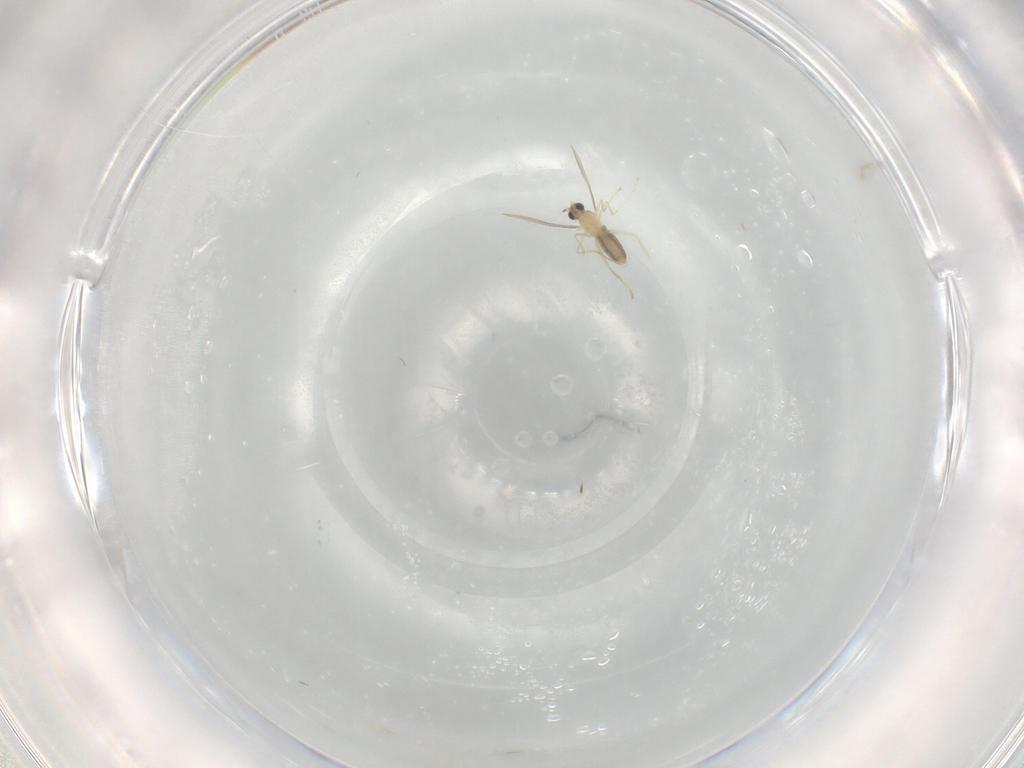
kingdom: Animalia
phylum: Arthropoda
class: Insecta
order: Diptera
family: Cecidomyiidae
